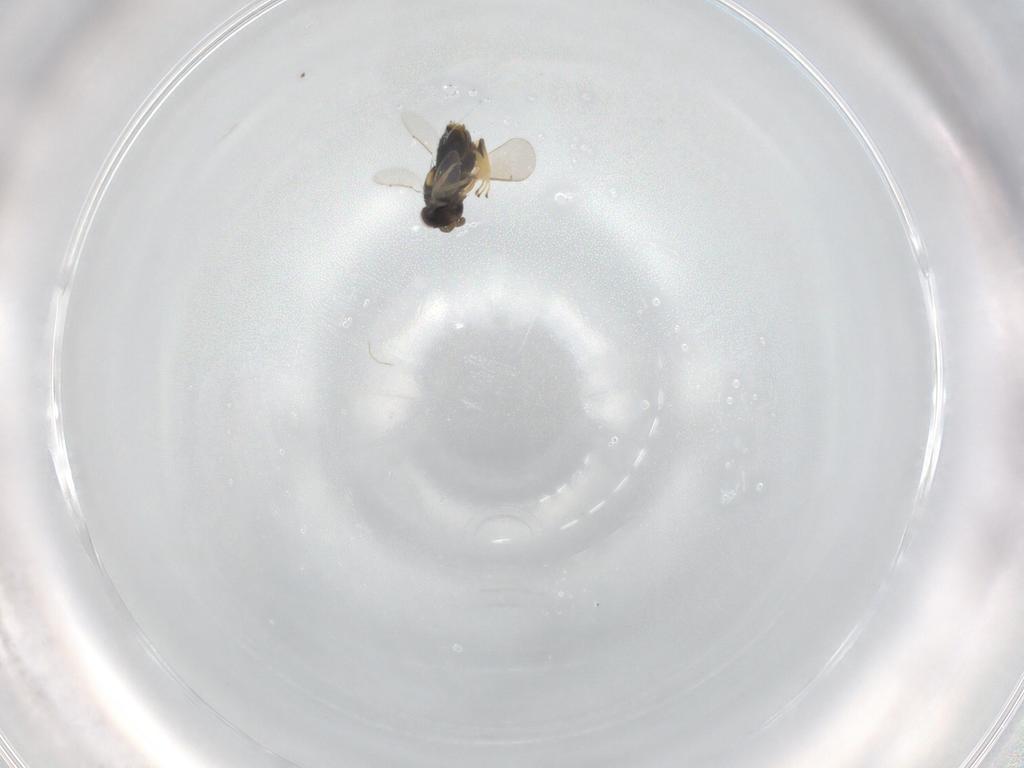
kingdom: Animalia
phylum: Arthropoda
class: Insecta
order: Hymenoptera
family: Aphelinidae
